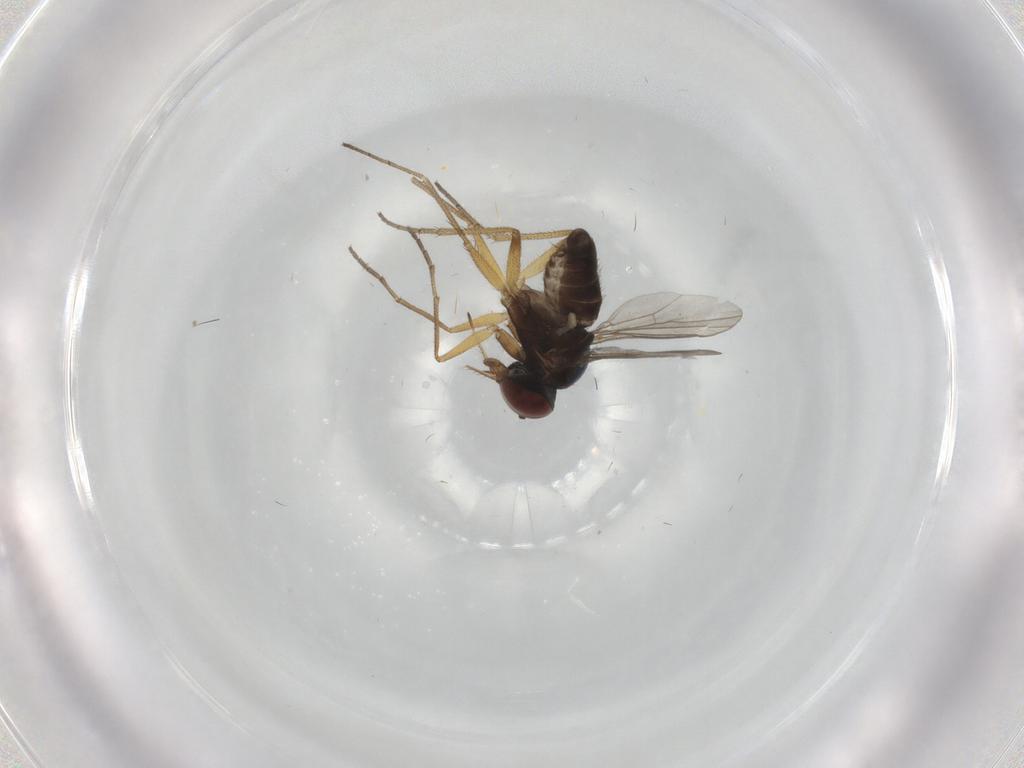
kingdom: Animalia
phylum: Arthropoda
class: Insecta
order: Diptera
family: Dolichopodidae
